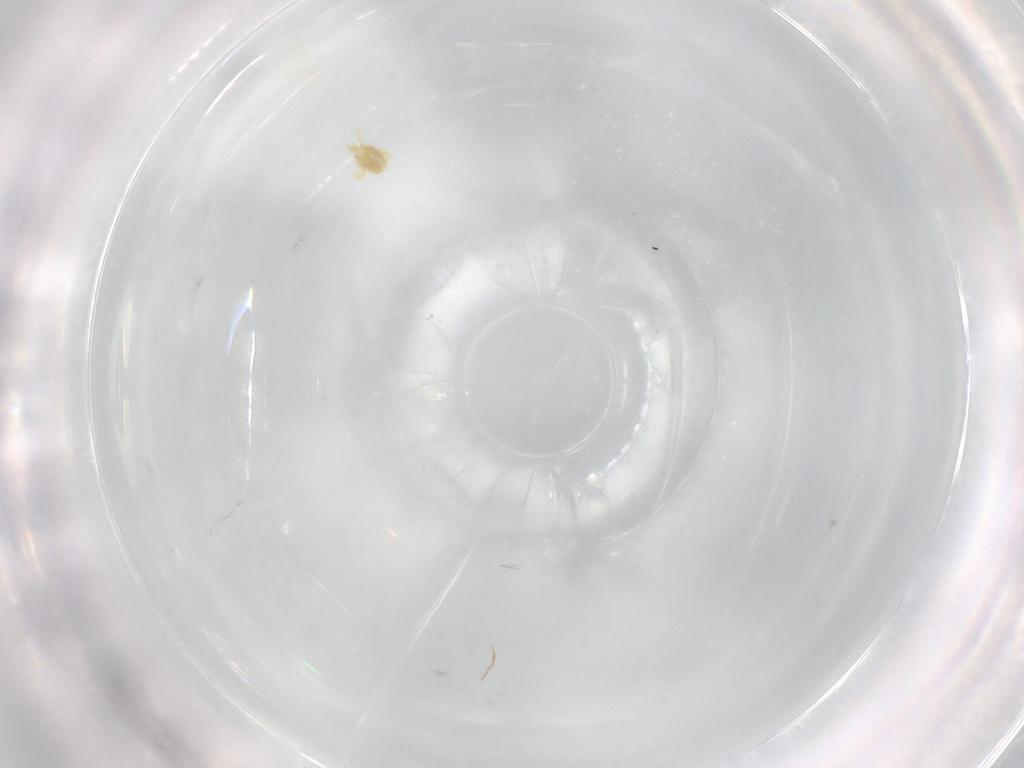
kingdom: Animalia
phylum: Arthropoda
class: Arachnida
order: Trombidiformes
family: Eupodidae
